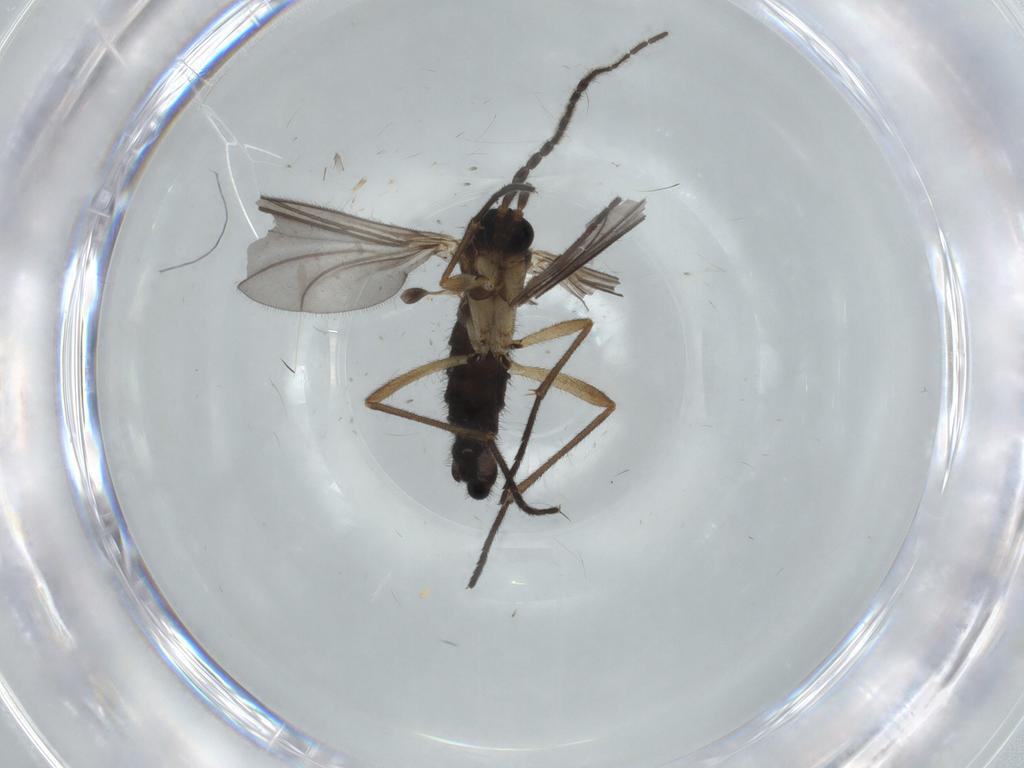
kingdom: Animalia
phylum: Arthropoda
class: Insecta
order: Diptera
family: Sciaridae
